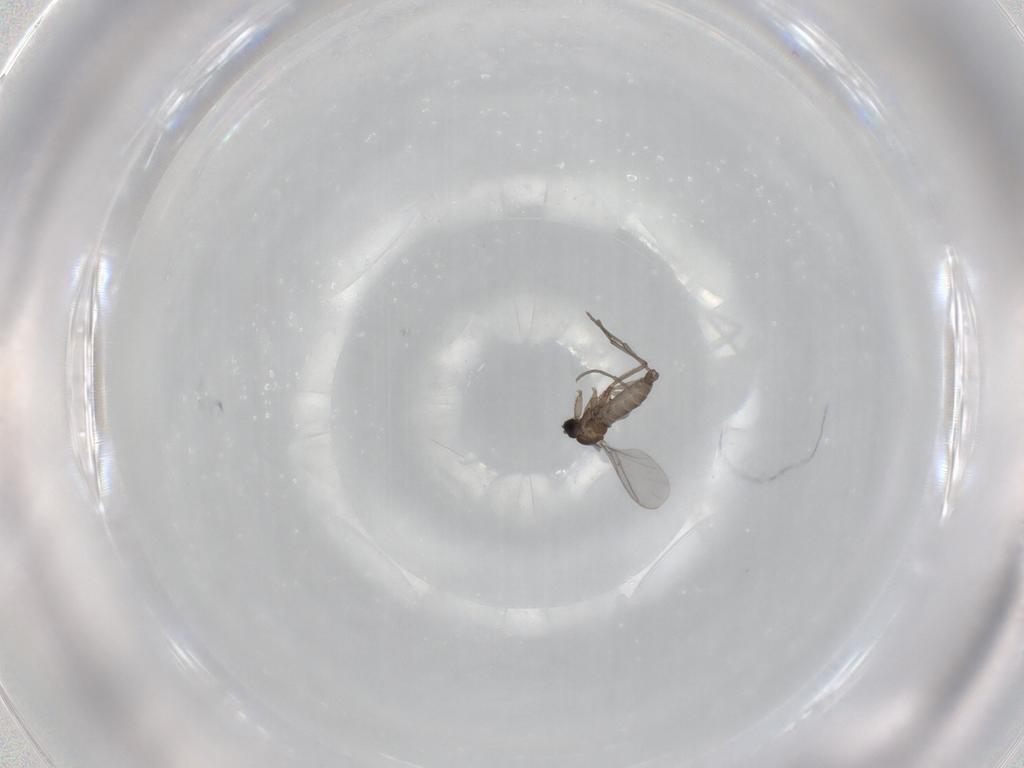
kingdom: Animalia
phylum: Arthropoda
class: Insecta
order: Diptera
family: Sciaridae
